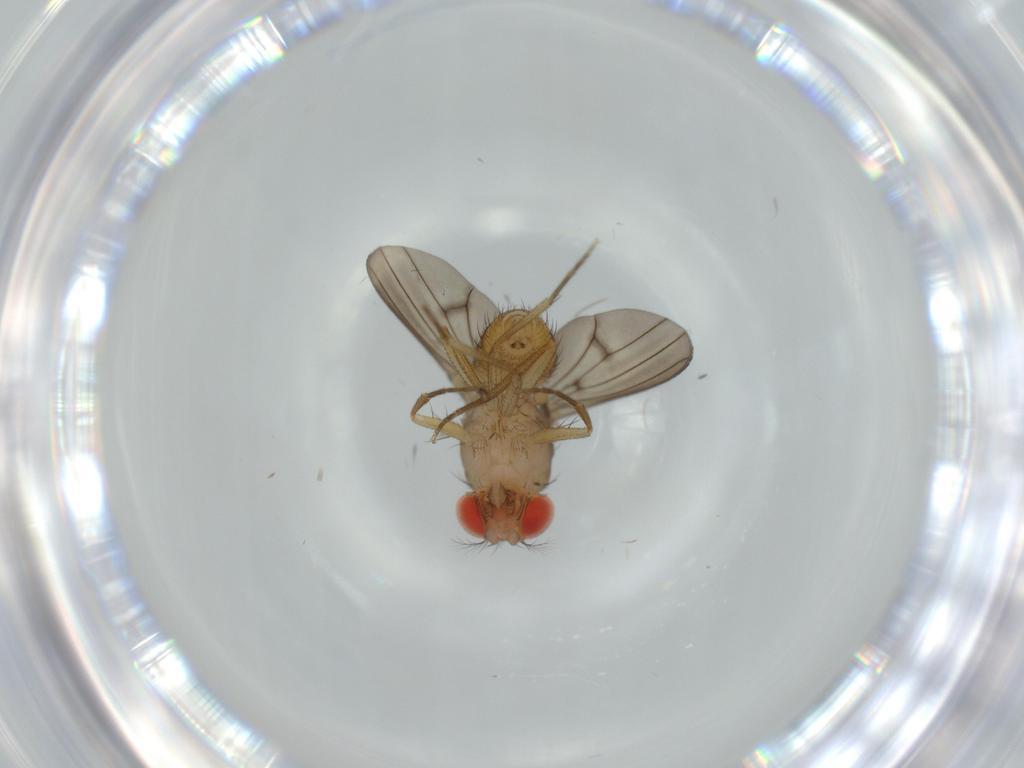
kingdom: Animalia
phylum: Arthropoda
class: Insecta
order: Diptera
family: Drosophilidae
